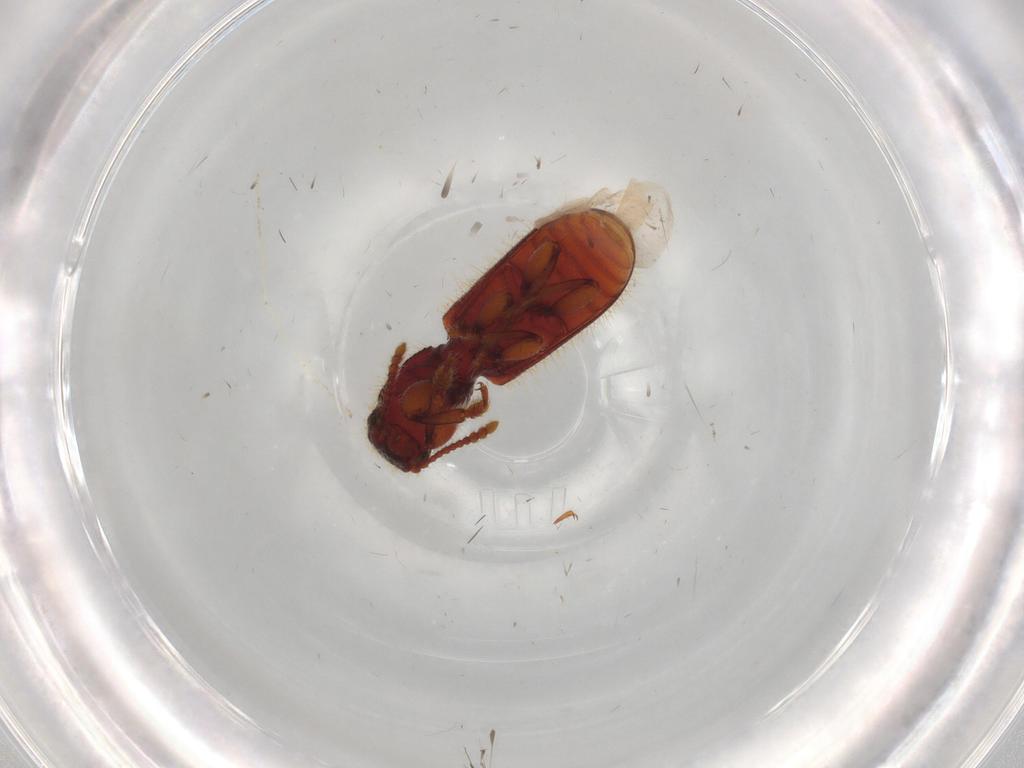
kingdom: Animalia
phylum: Arthropoda
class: Insecta
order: Coleoptera
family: Thanerocleridae
